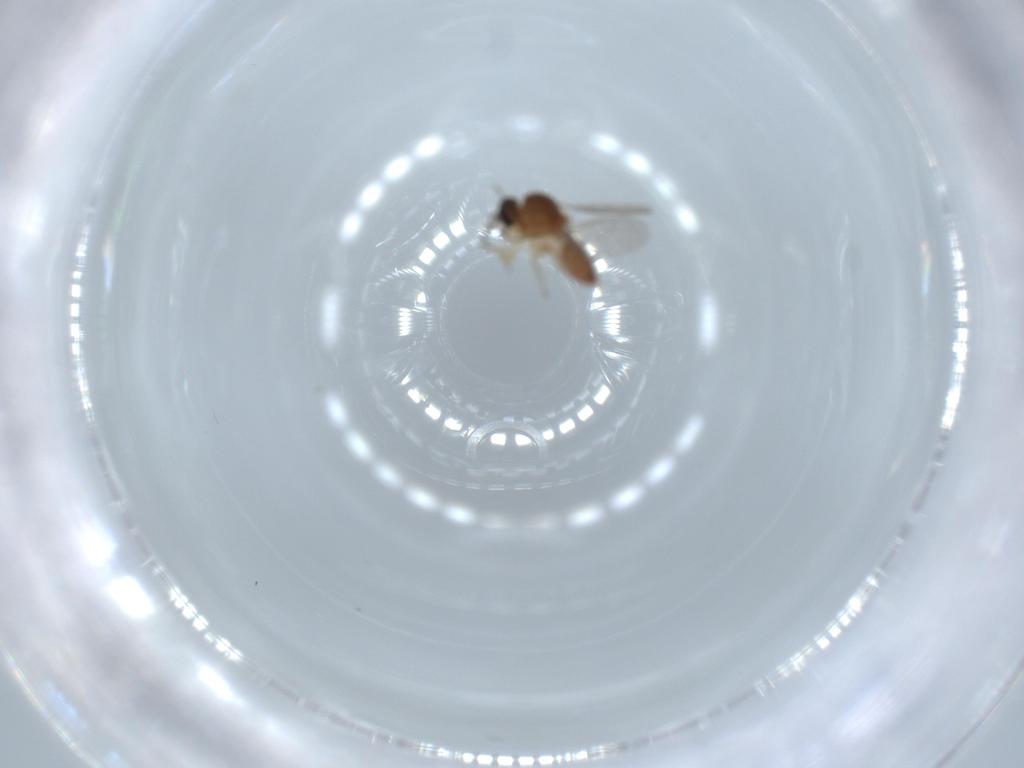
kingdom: Animalia
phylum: Arthropoda
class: Insecta
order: Diptera
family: Ceratopogonidae
